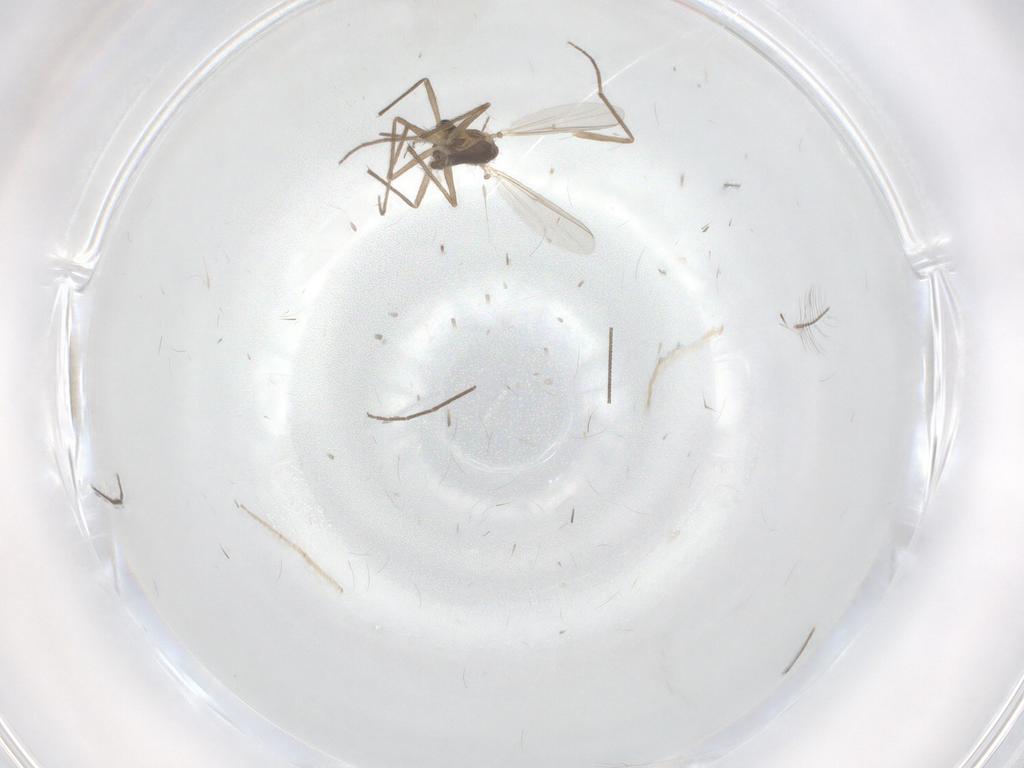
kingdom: Animalia
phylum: Arthropoda
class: Insecta
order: Diptera
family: Chironomidae
